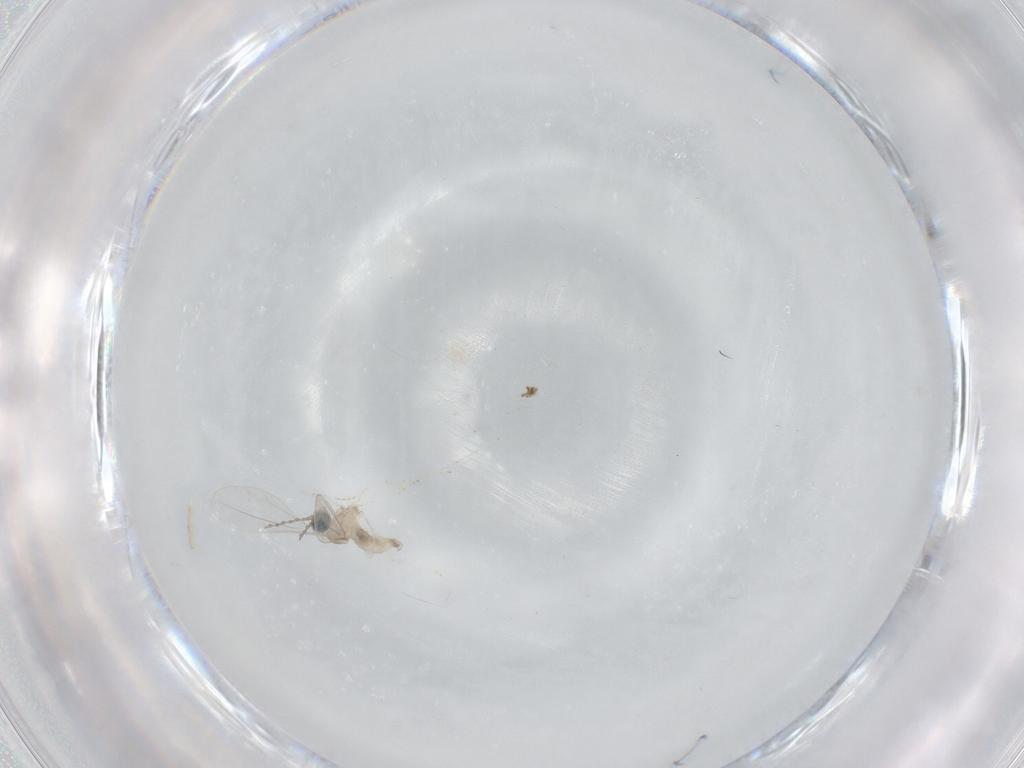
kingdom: Animalia
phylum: Arthropoda
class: Insecta
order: Diptera
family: Cecidomyiidae
